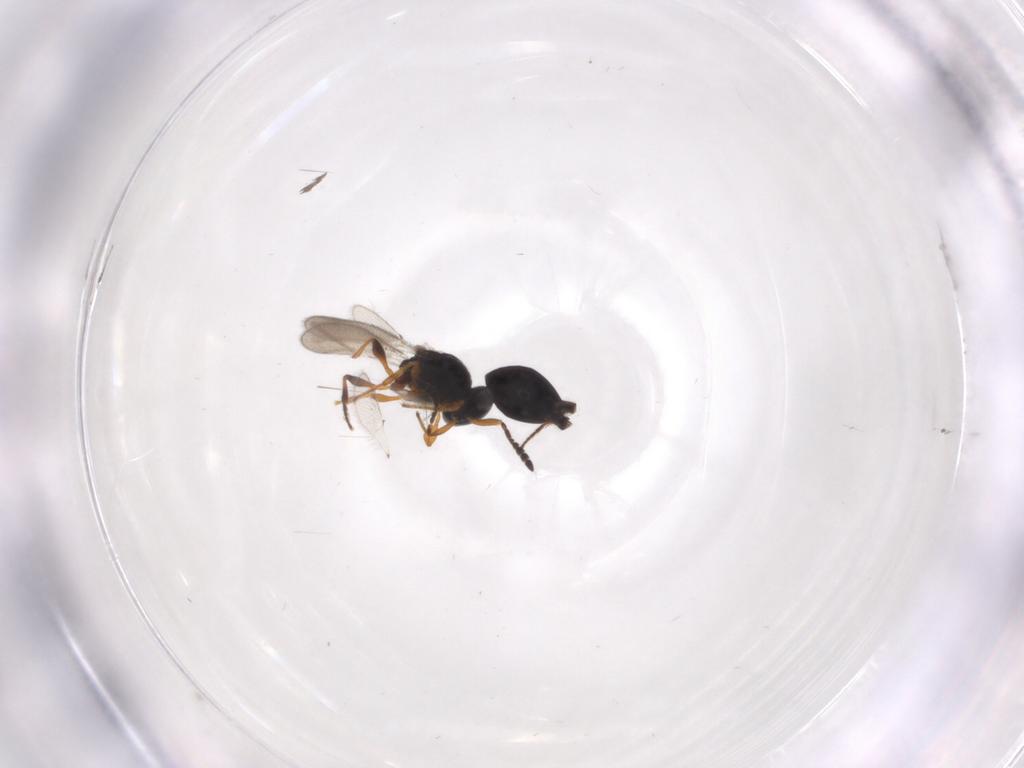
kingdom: Animalia
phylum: Arthropoda
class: Insecta
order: Hymenoptera
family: Platygastridae
